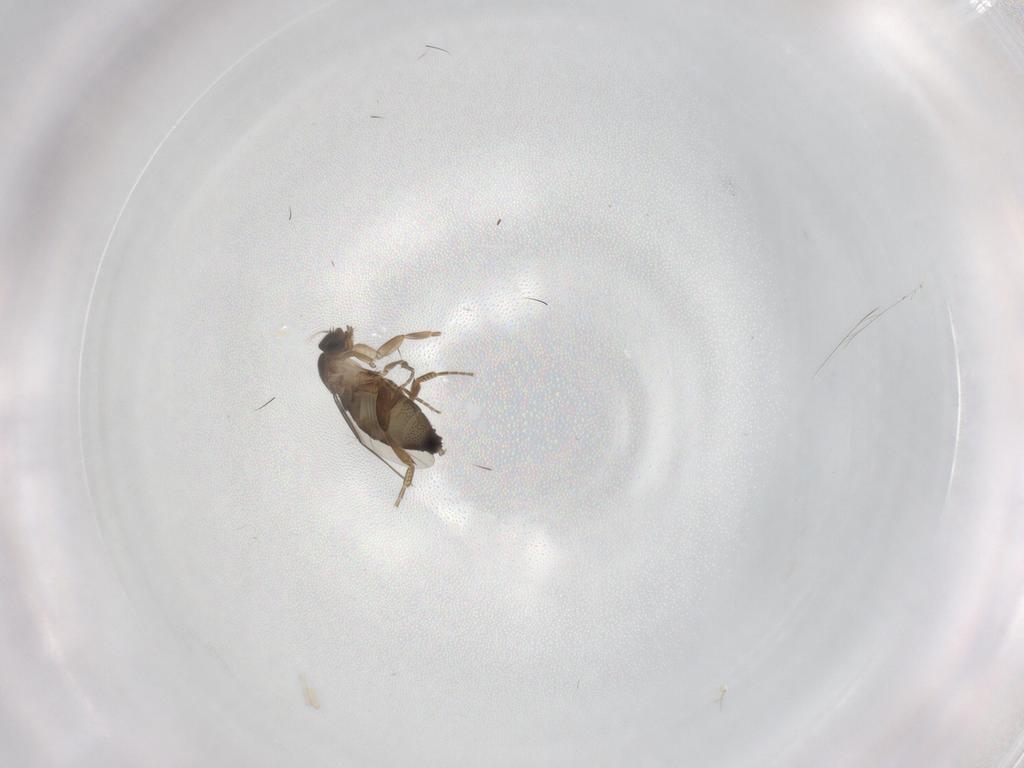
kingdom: Animalia
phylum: Arthropoda
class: Insecta
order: Diptera
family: Phoridae
